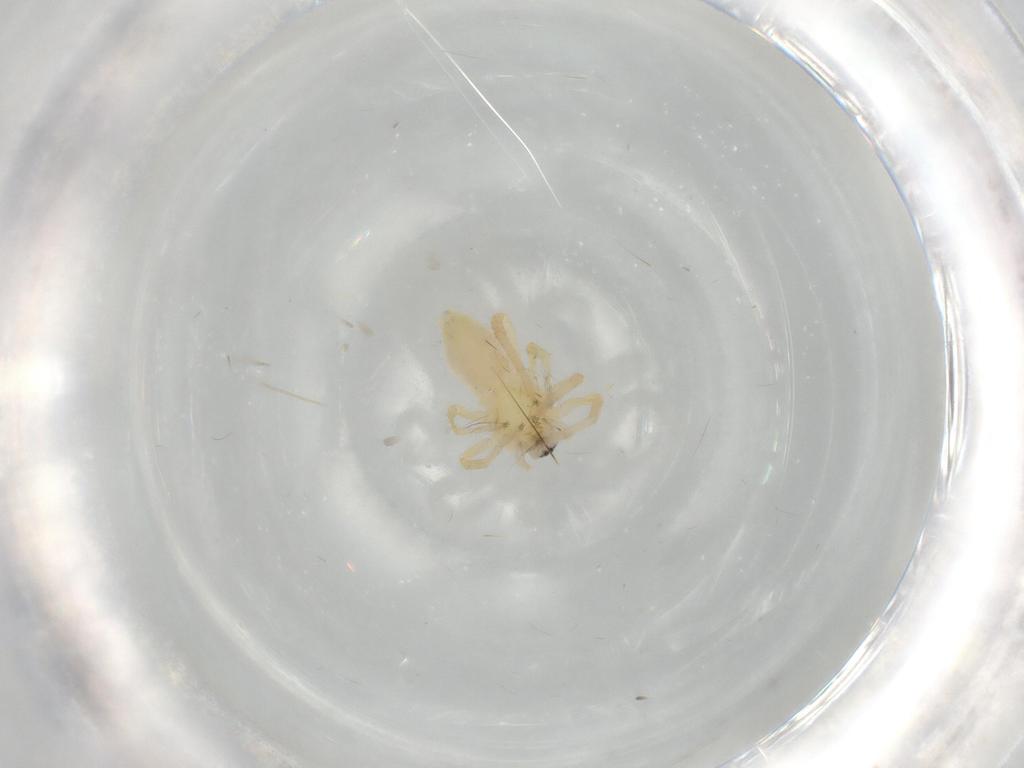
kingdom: Animalia
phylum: Arthropoda
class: Arachnida
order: Araneae
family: Anyphaenidae
